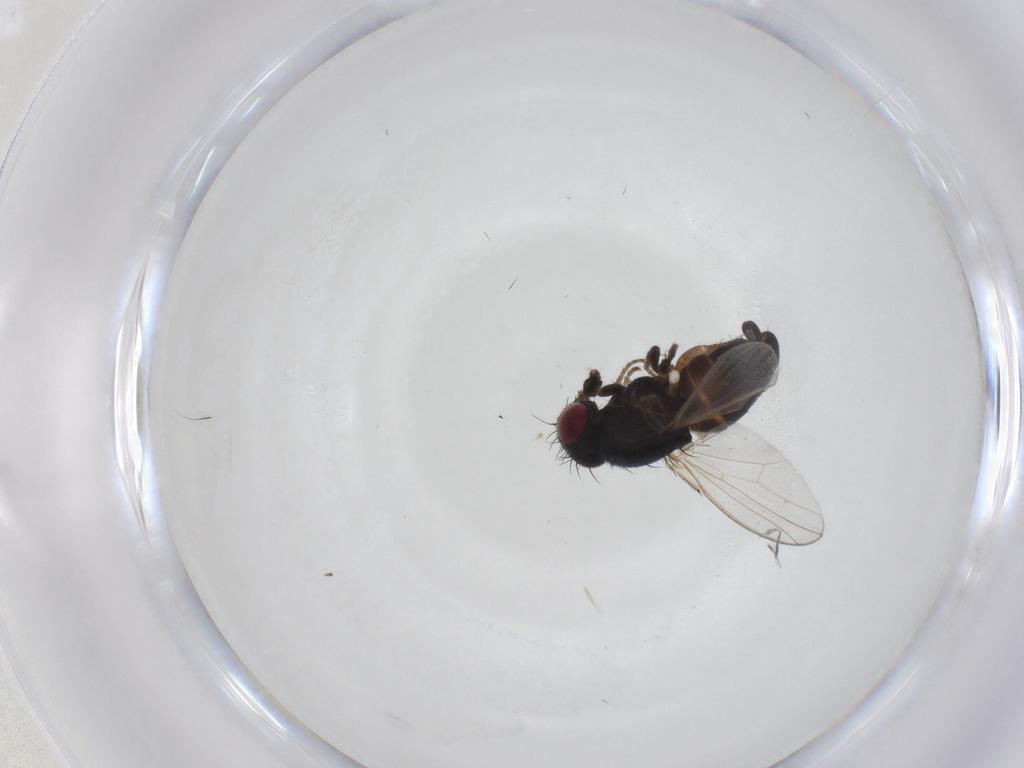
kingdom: Animalia
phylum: Arthropoda
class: Insecta
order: Diptera
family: Carnidae
